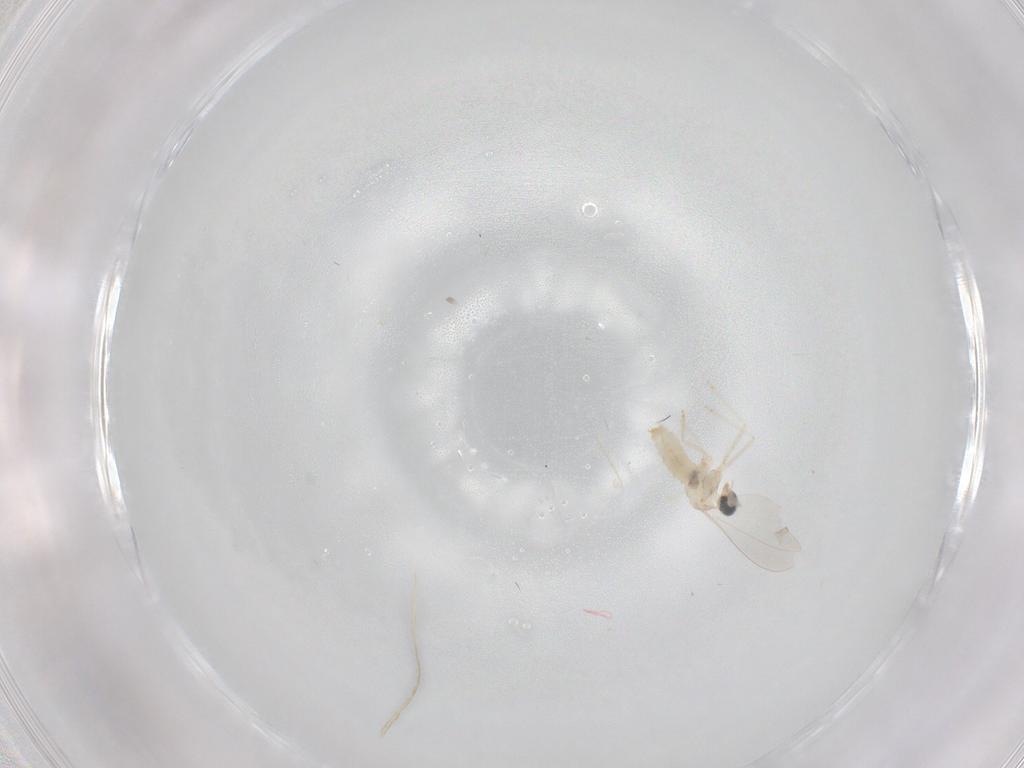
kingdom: Animalia
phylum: Arthropoda
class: Insecta
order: Diptera
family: Cecidomyiidae
